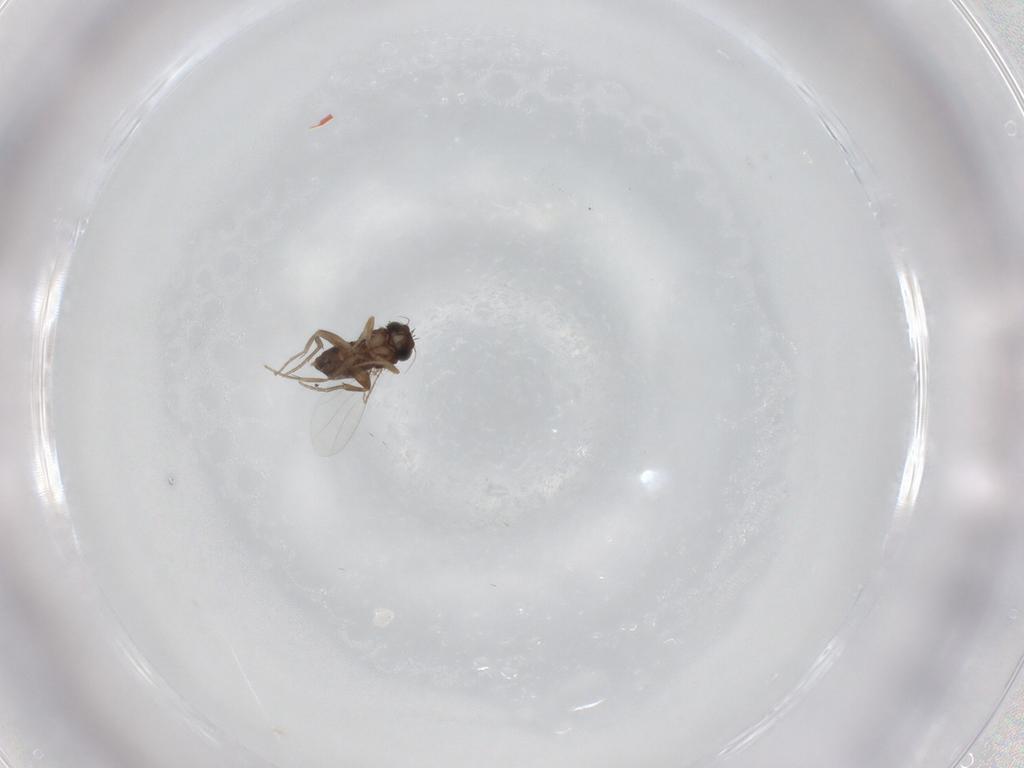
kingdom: Animalia
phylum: Arthropoda
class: Insecta
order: Diptera
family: Phoridae
